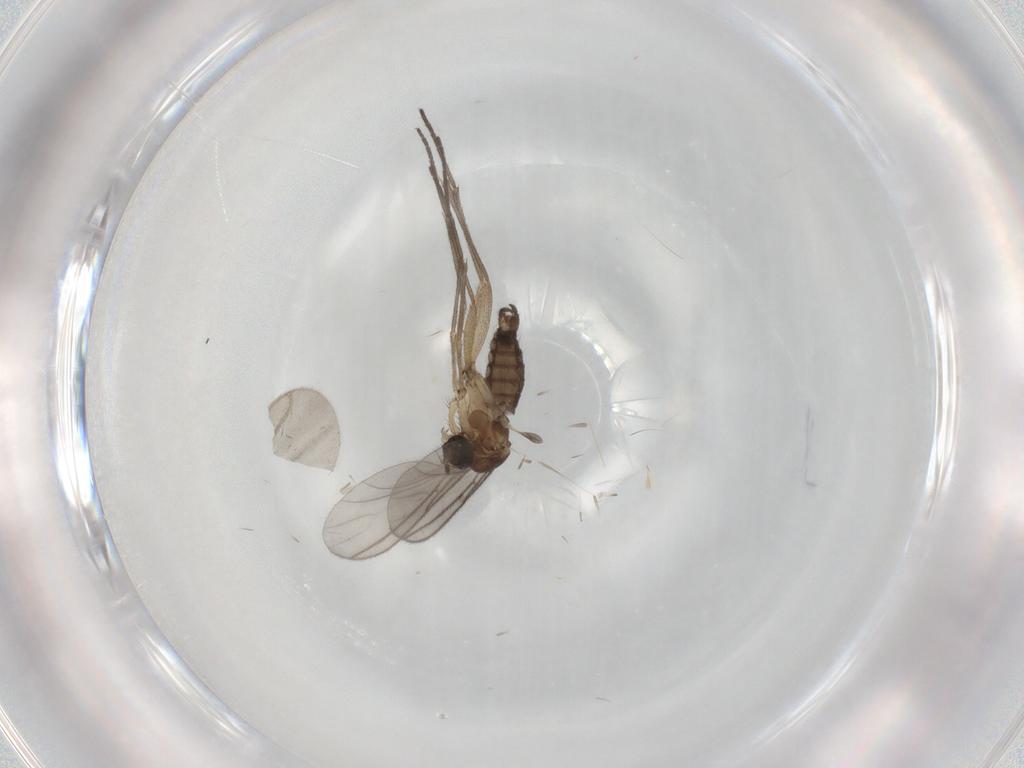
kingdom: Animalia
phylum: Arthropoda
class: Insecta
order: Diptera
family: Sciaridae
